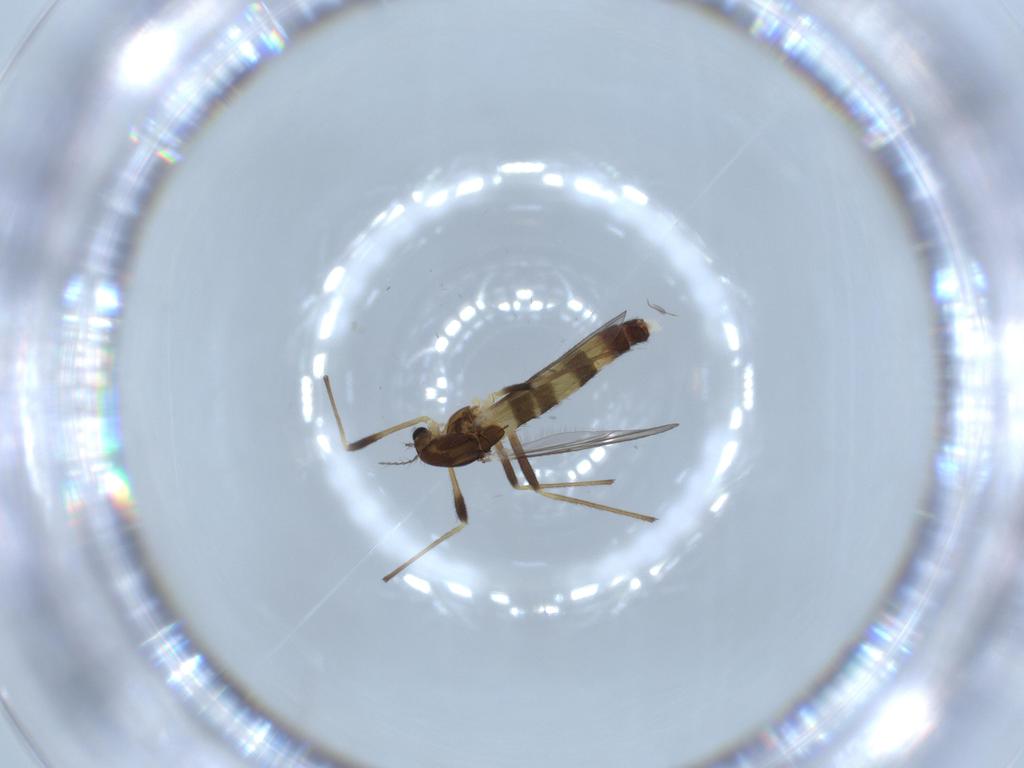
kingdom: Animalia
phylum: Arthropoda
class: Insecta
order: Diptera
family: Chironomidae
